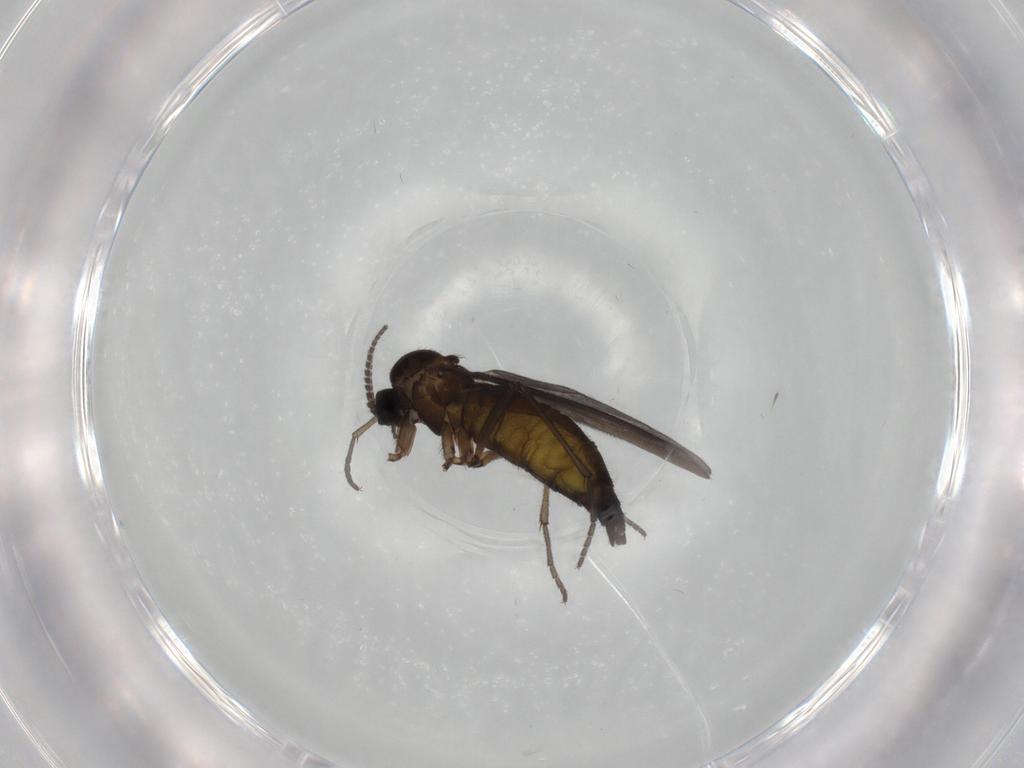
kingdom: Animalia
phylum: Arthropoda
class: Insecta
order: Diptera
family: Sciaridae
